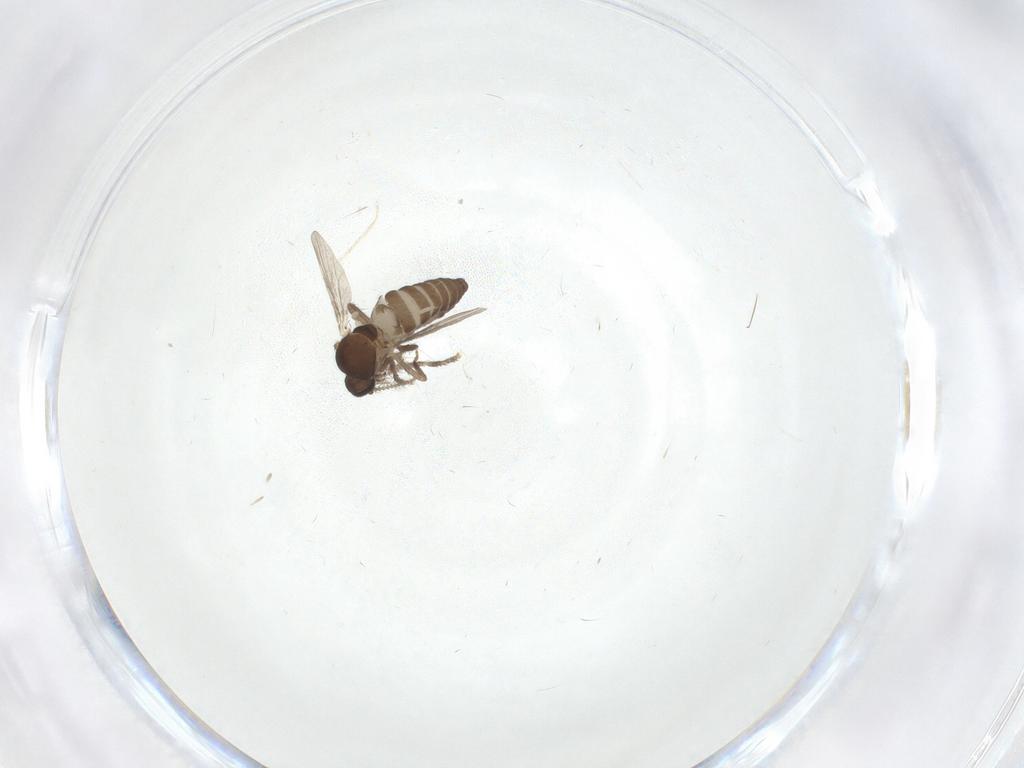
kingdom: Animalia
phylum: Arthropoda
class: Insecta
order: Diptera
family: Ceratopogonidae
